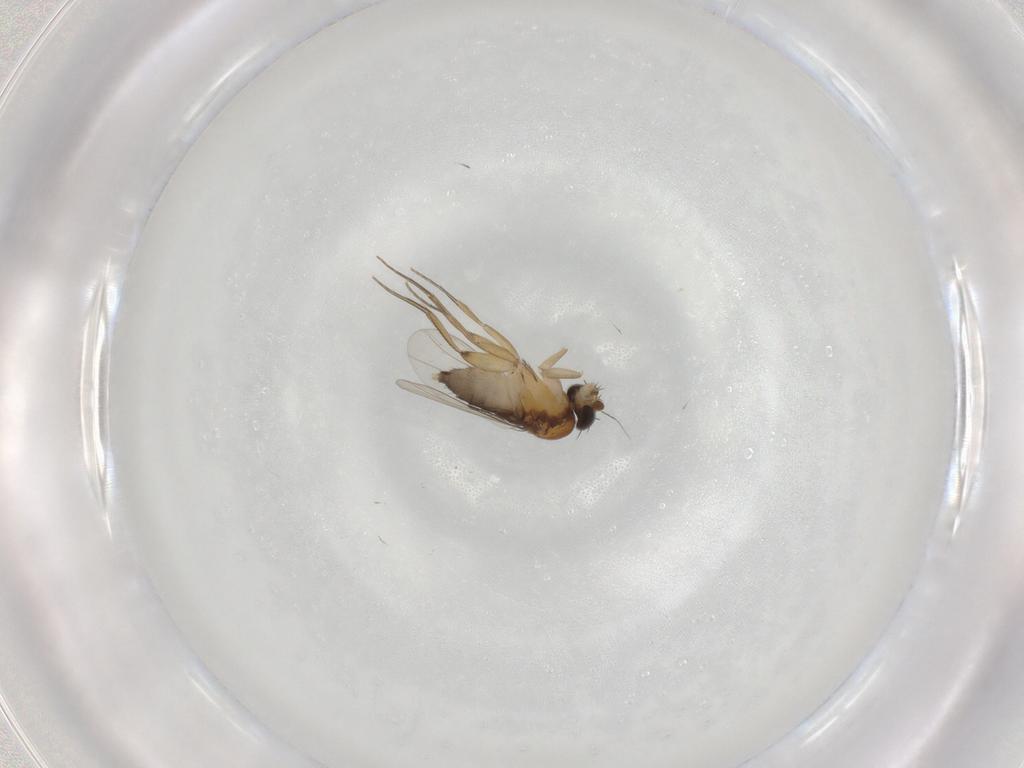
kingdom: Animalia
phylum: Arthropoda
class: Insecta
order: Diptera
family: Phoridae
